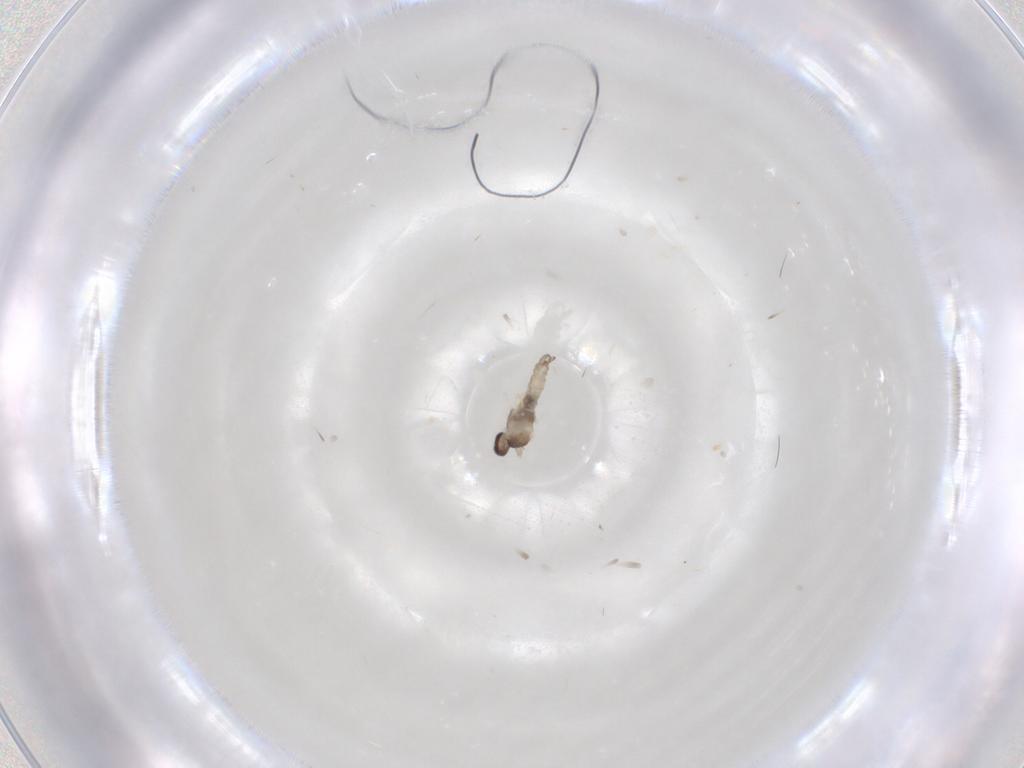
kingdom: Animalia
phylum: Arthropoda
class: Insecta
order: Diptera
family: Cecidomyiidae
